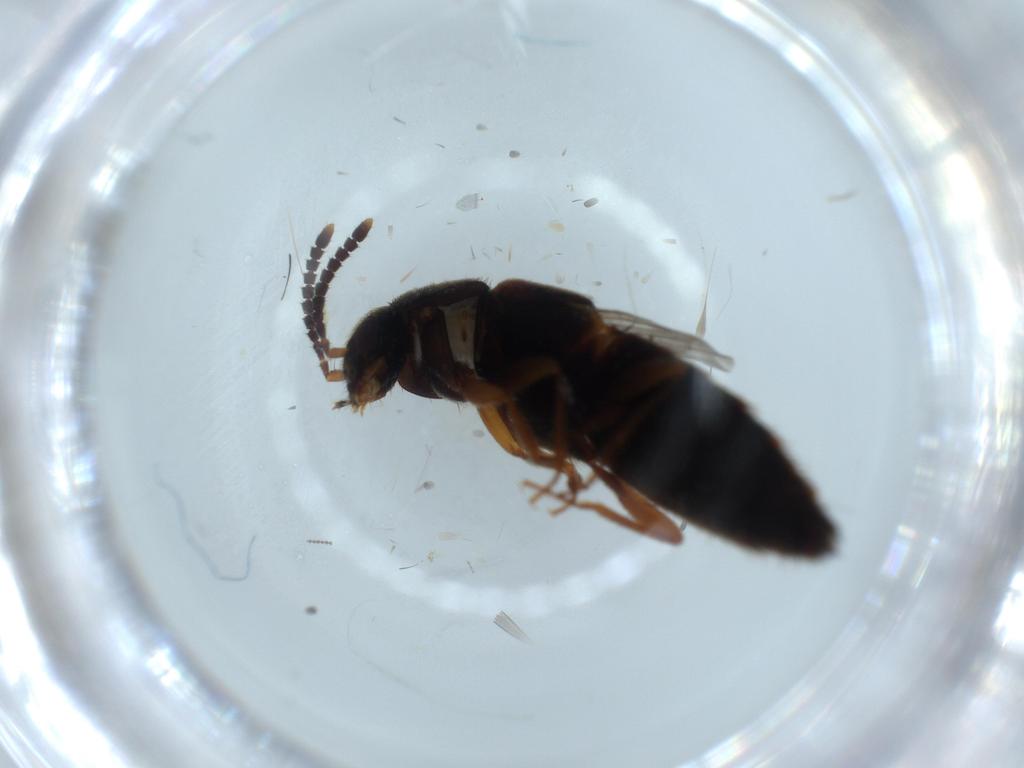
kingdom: Animalia
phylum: Arthropoda
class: Insecta
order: Coleoptera
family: Staphylinidae
